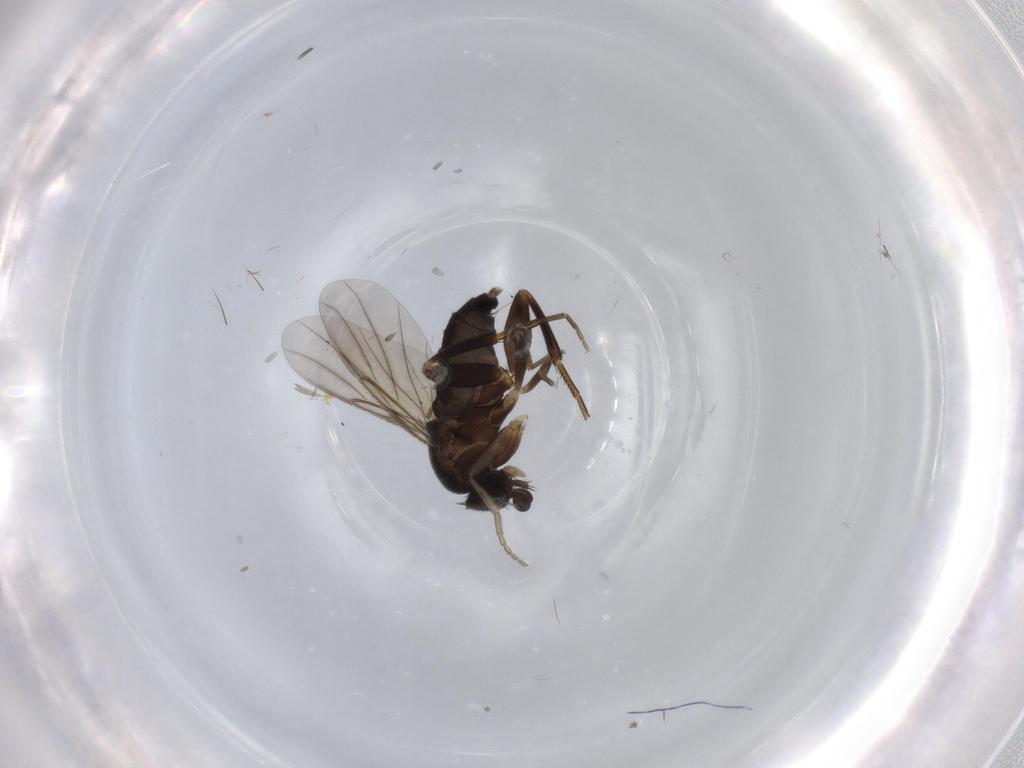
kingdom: Animalia
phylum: Arthropoda
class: Insecta
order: Diptera
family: Phoridae
